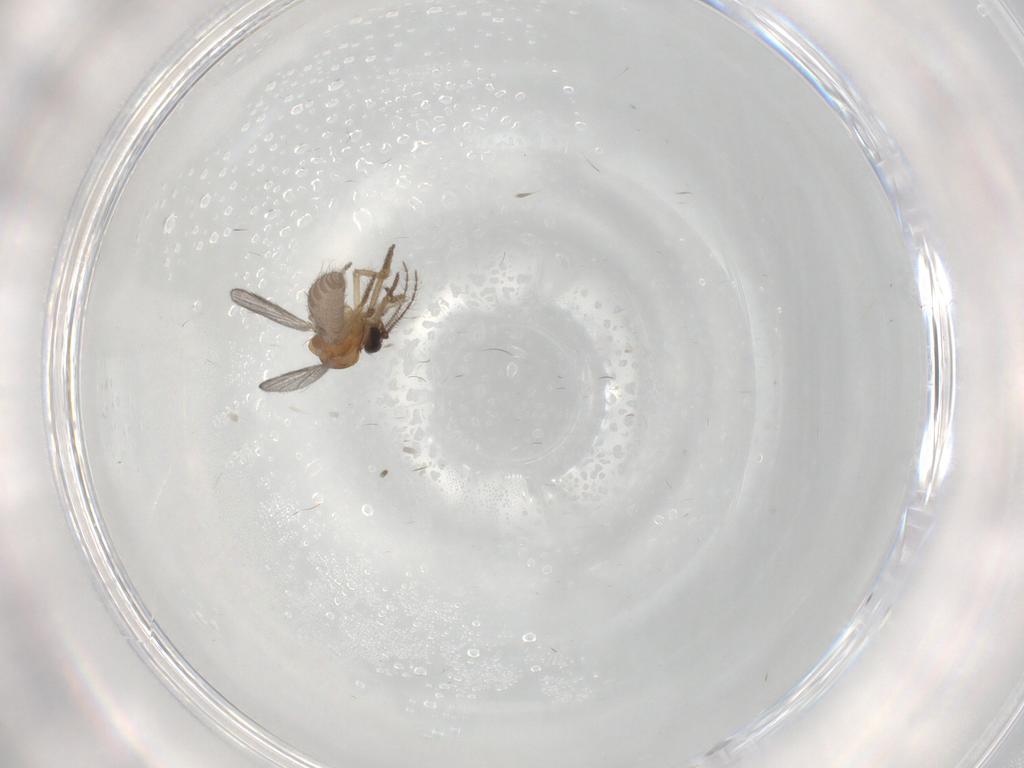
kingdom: Animalia
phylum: Arthropoda
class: Insecta
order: Diptera
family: Ceratopogonidae
